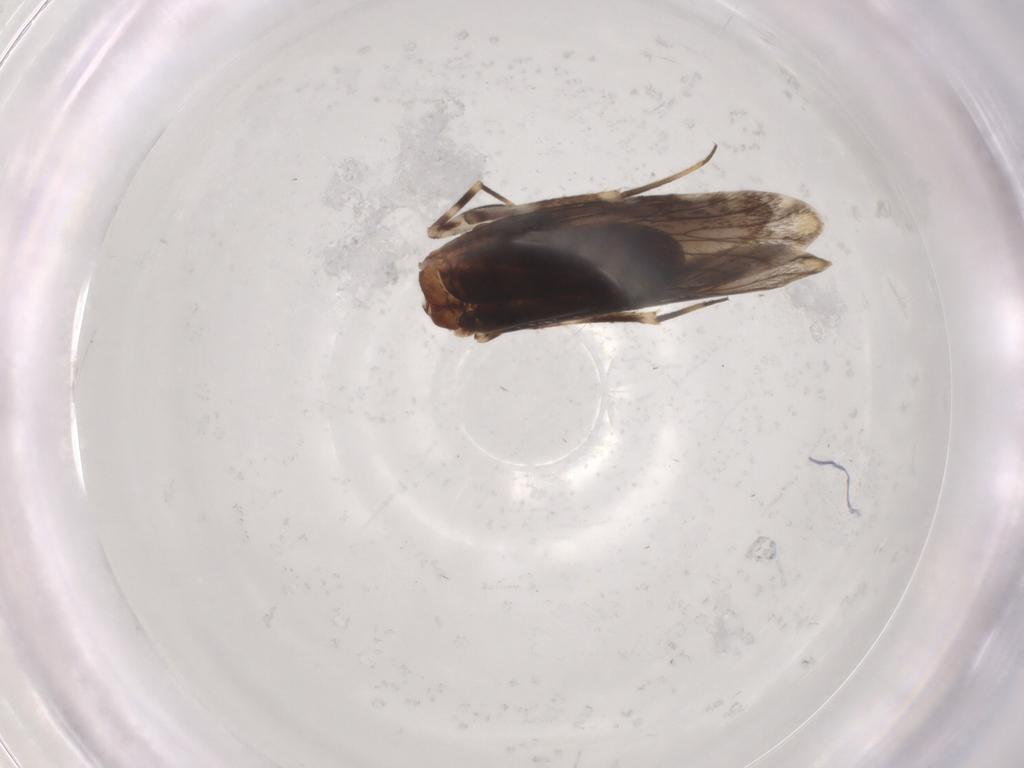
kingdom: Animalia
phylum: Arthropoda
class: Insecta
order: Psocodea
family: Amphientomidae
